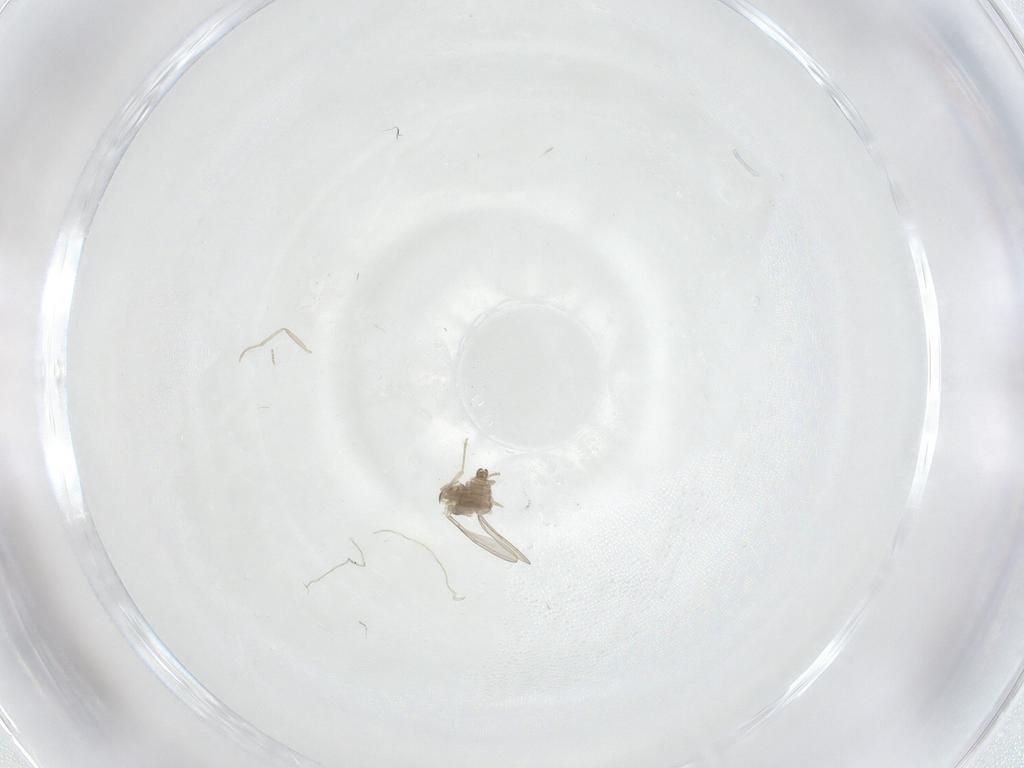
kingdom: Animalia
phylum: Arthropoda
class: Insecta
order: Diptera
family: Sphaeroceridae
